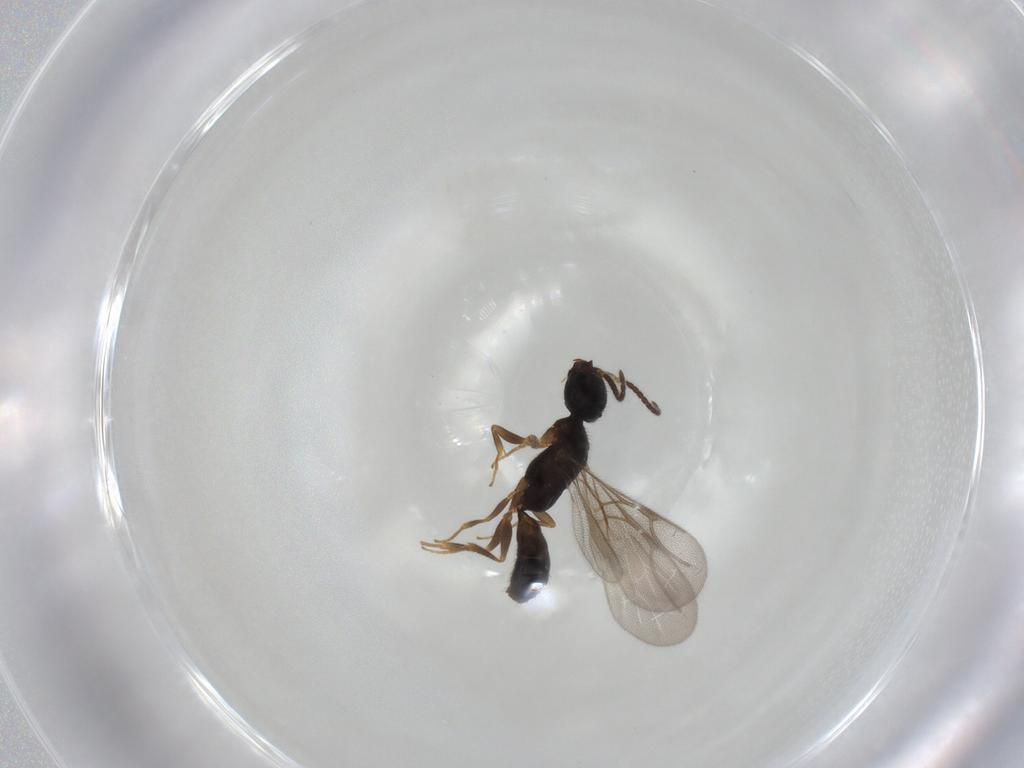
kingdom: Animalia
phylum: Arthropoda
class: Insecta
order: Hymenoptera
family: Bethylidae
